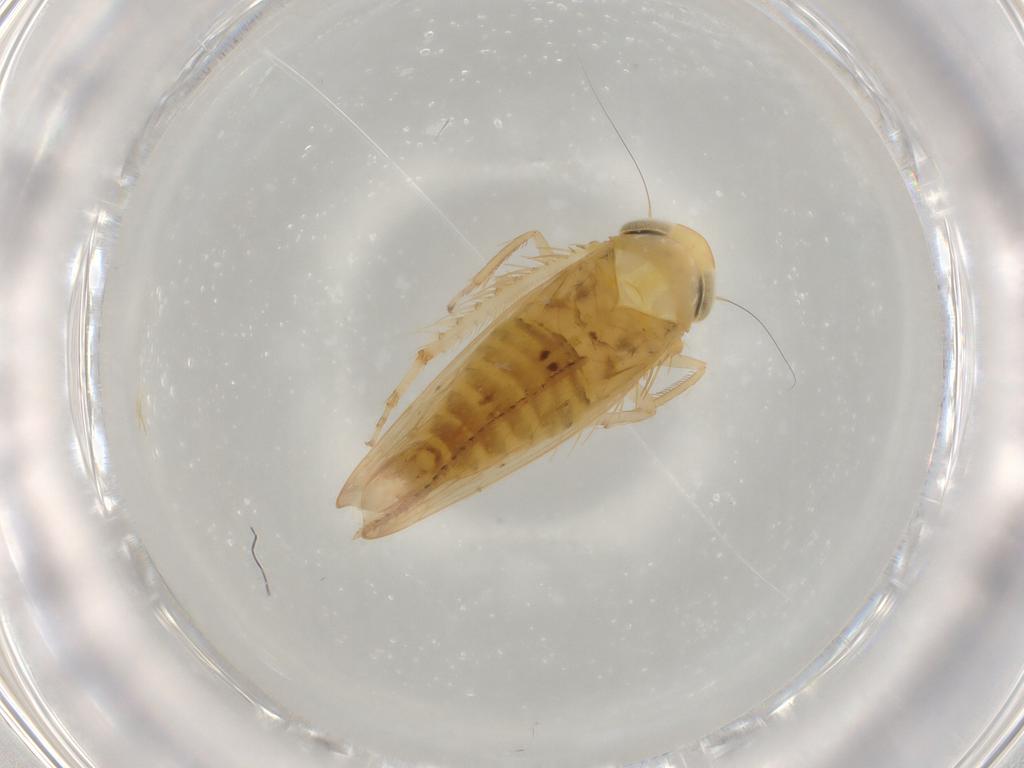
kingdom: Animalia
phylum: Arthropoda
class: Insecta
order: Hemiptera
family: Cicadellidae
